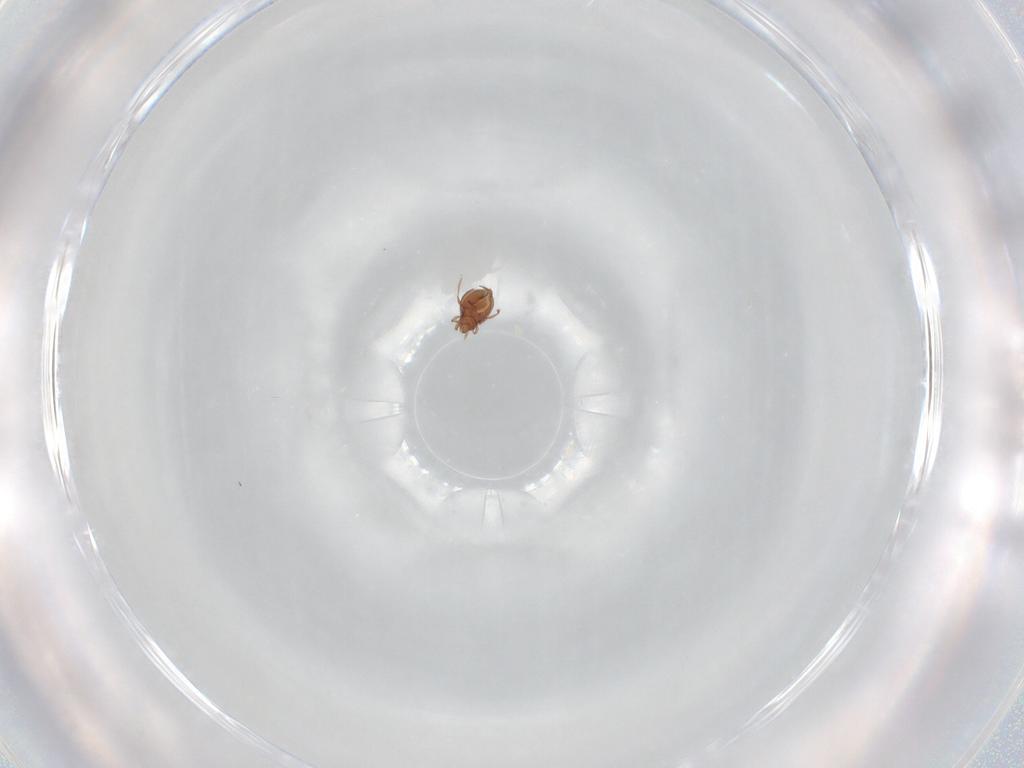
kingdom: Animalia
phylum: Arthropoda
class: Arachnida
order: Sarcoptiformes
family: Oribatulidae
